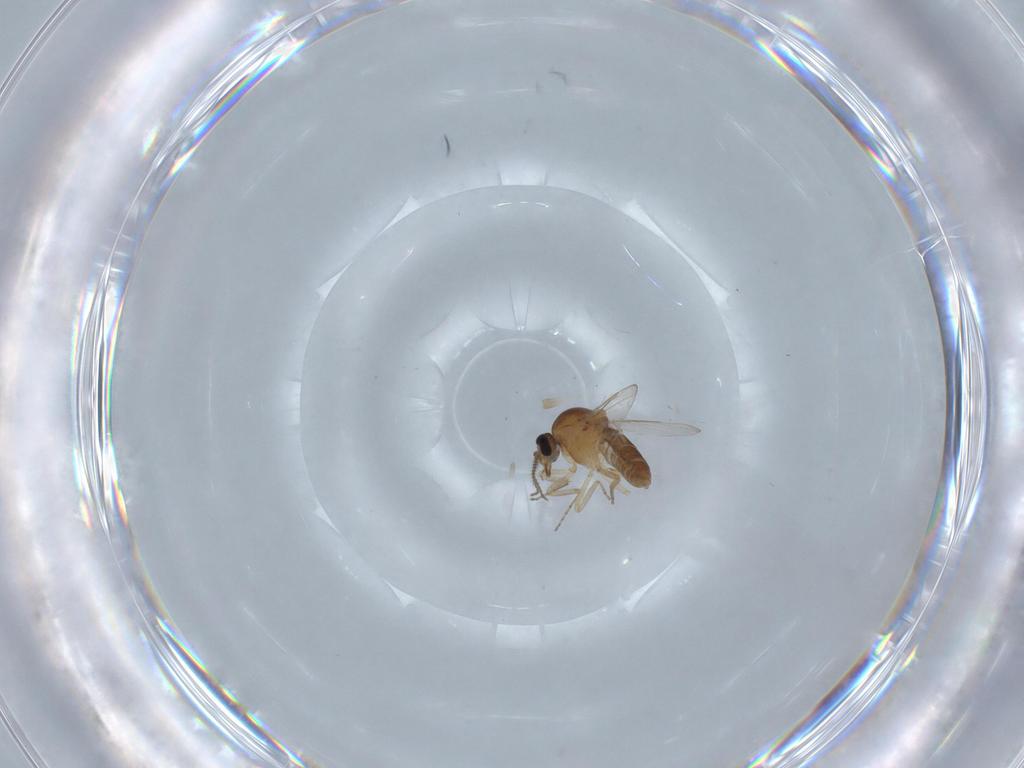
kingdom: Animalia
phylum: Arthropoda
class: Insecta
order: Diptera
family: Ceratopogonidae
